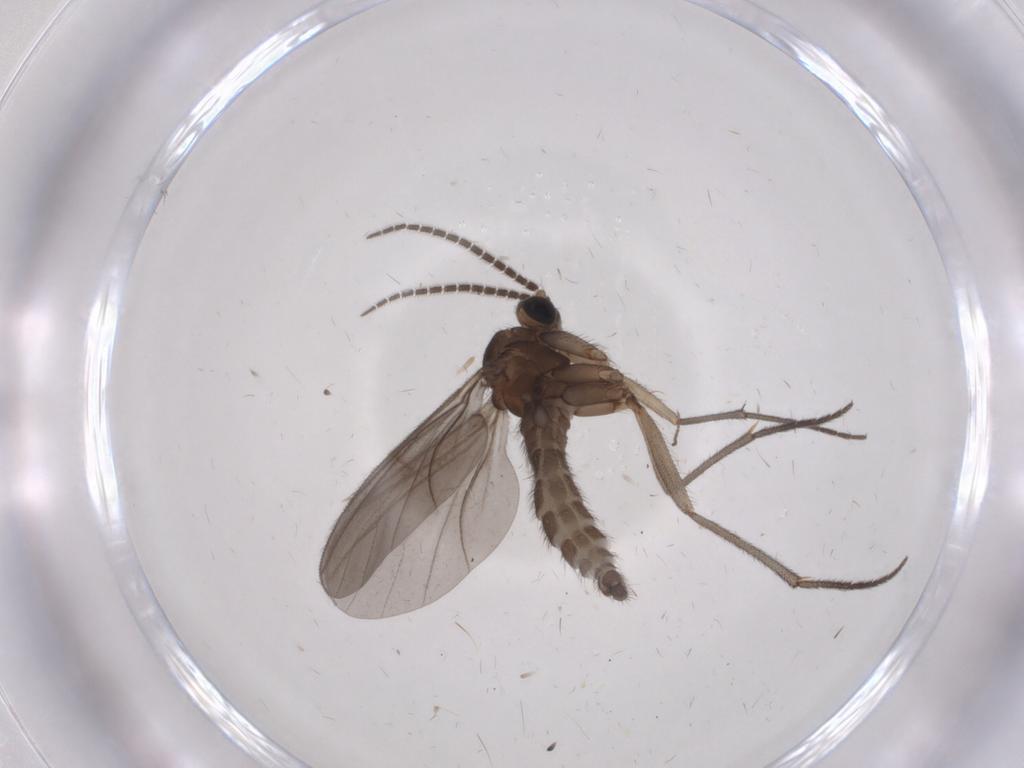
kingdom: Animalia
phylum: Arthropoda
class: Insecta
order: Diptera
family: Sciaridae
